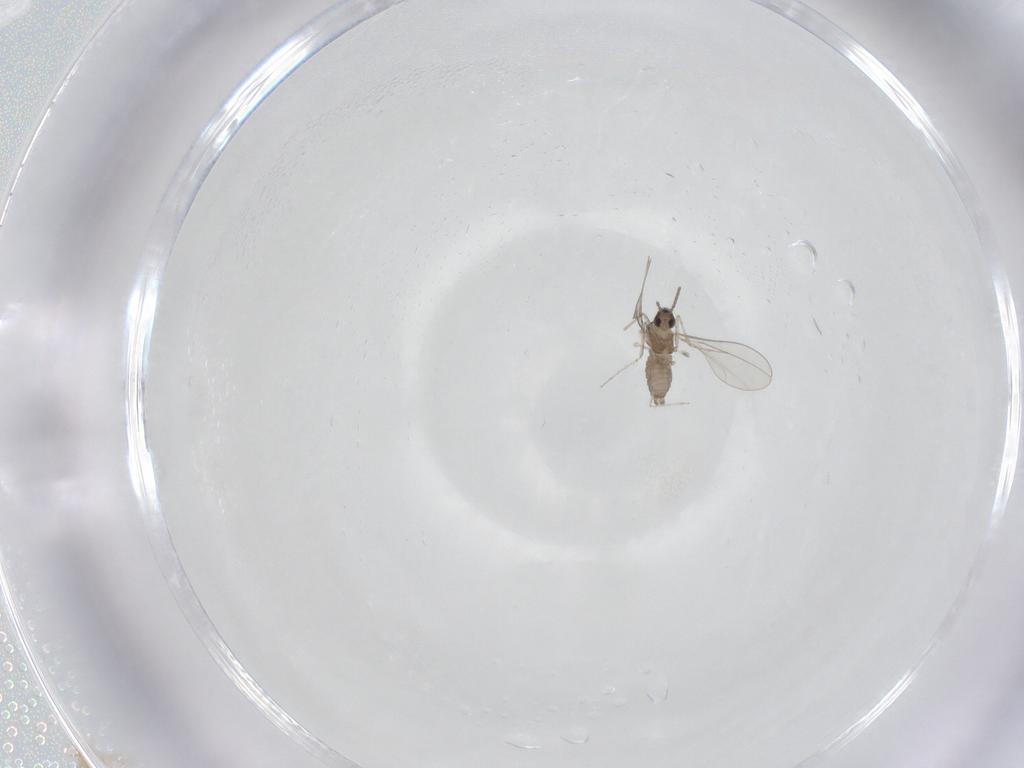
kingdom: Animalia
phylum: Arthropoda
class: Insecta
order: Diptera
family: Cecidomyiidae
